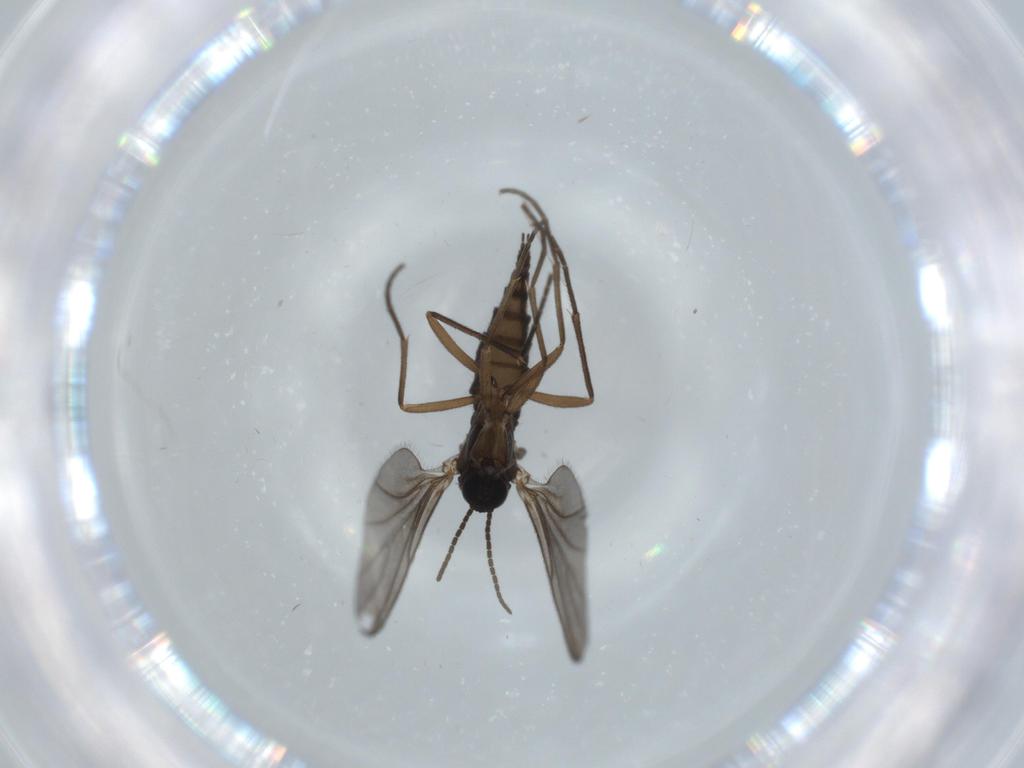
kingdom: Animalia
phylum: Arthropoda
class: Insecta
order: Diptera
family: Sciaridae
